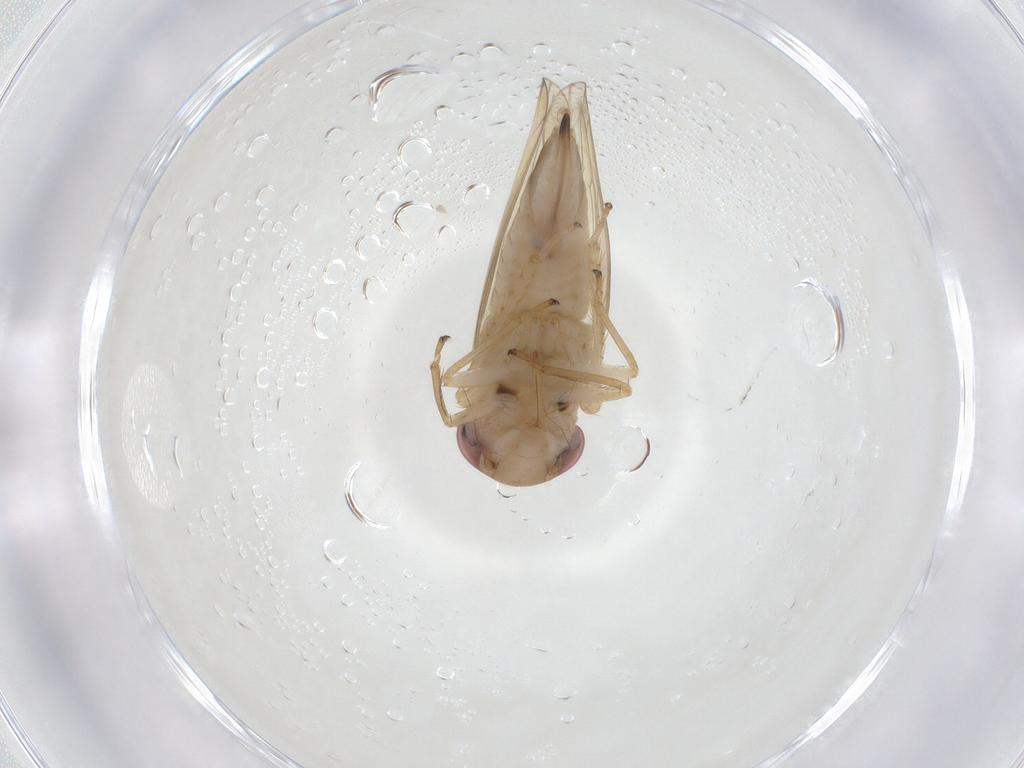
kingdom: Animalia
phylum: Arthropoda
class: Insecta
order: Hemiptera
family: Cicadellidae
